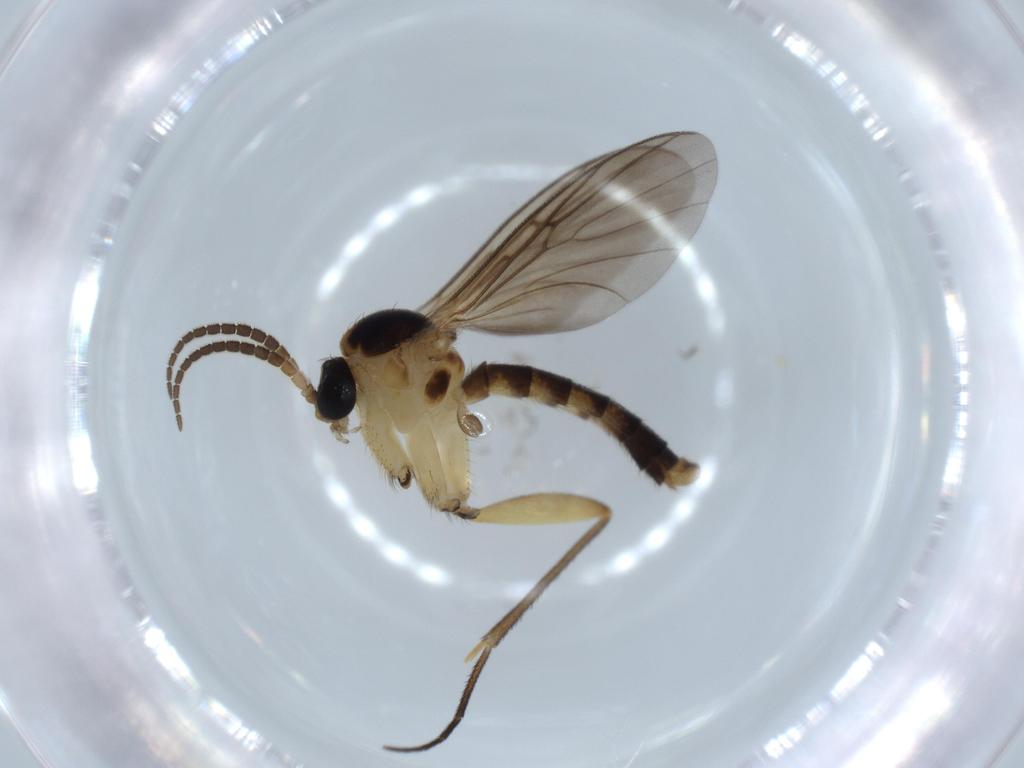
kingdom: Animalia
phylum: Arthropoda
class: Insecta
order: Diptera
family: Mycetophilidae
